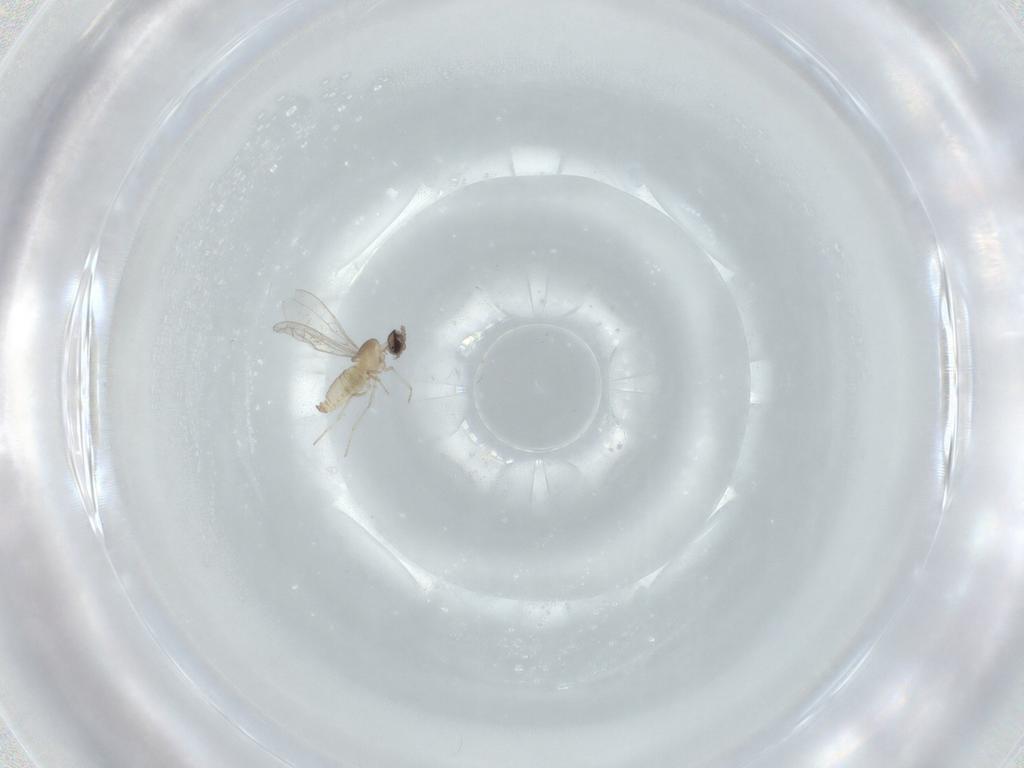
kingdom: Animalia
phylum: Arthropoda
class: Insecta
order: Diptera
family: Cecidomyiidae
